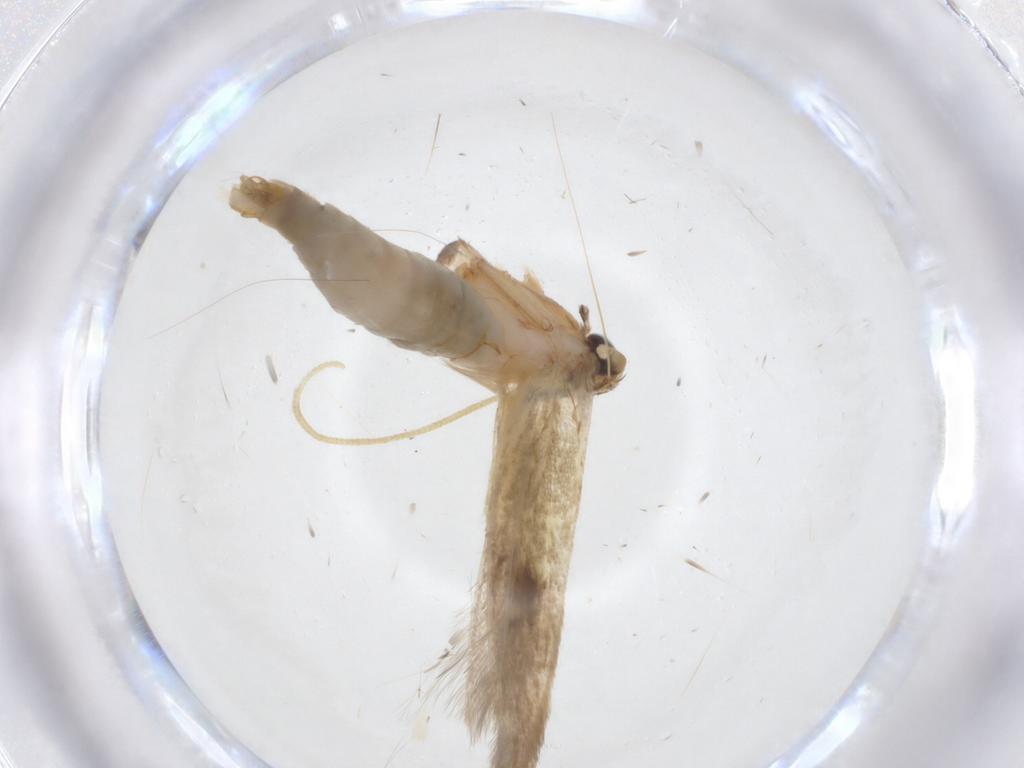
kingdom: Animalia
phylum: Arthropoda
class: Insecta
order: Lepidoptera
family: Tineidae
